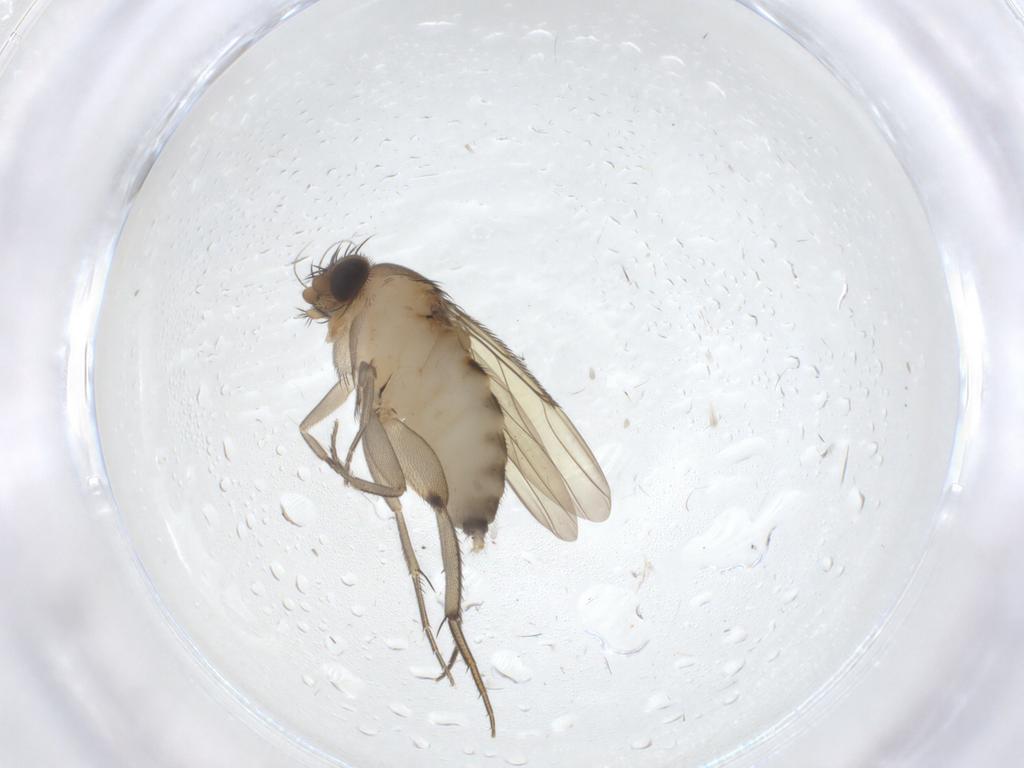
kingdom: Animalia
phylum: Arthropoda
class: Insecta
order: Diptera
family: Phoridae
